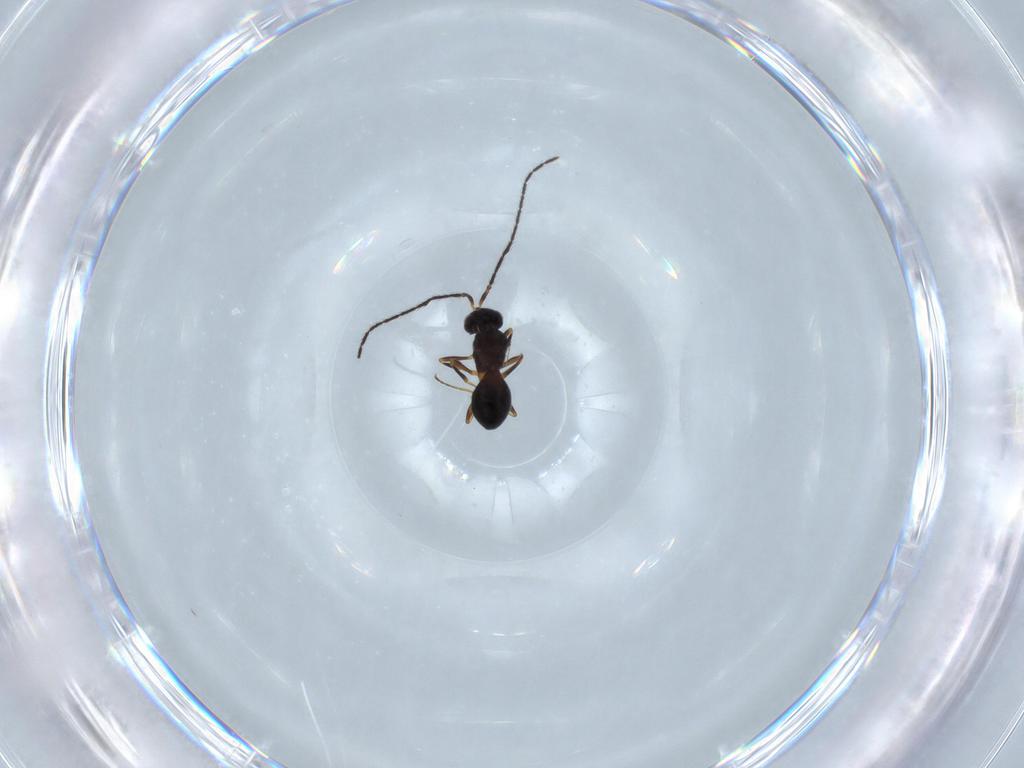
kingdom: Animalia
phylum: Arthropoda
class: Insecta
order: Hymenoptera
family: Scelionidae
